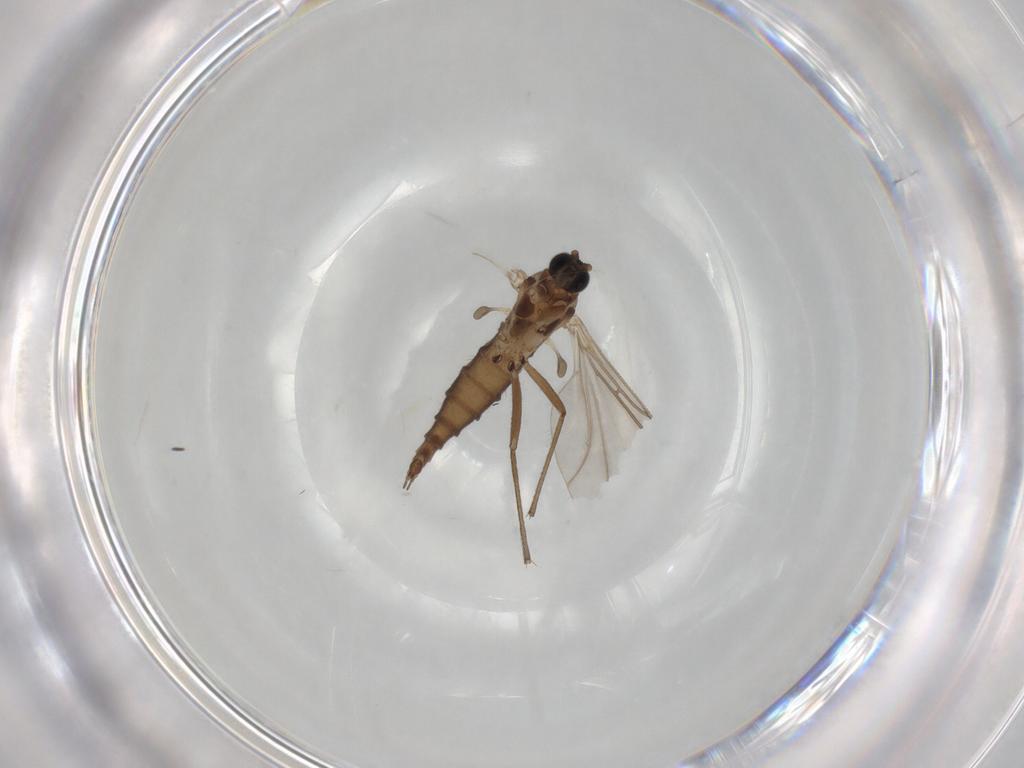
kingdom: Animalia
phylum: Arthropoda
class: Insecta
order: Diptera
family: Sciaridae
